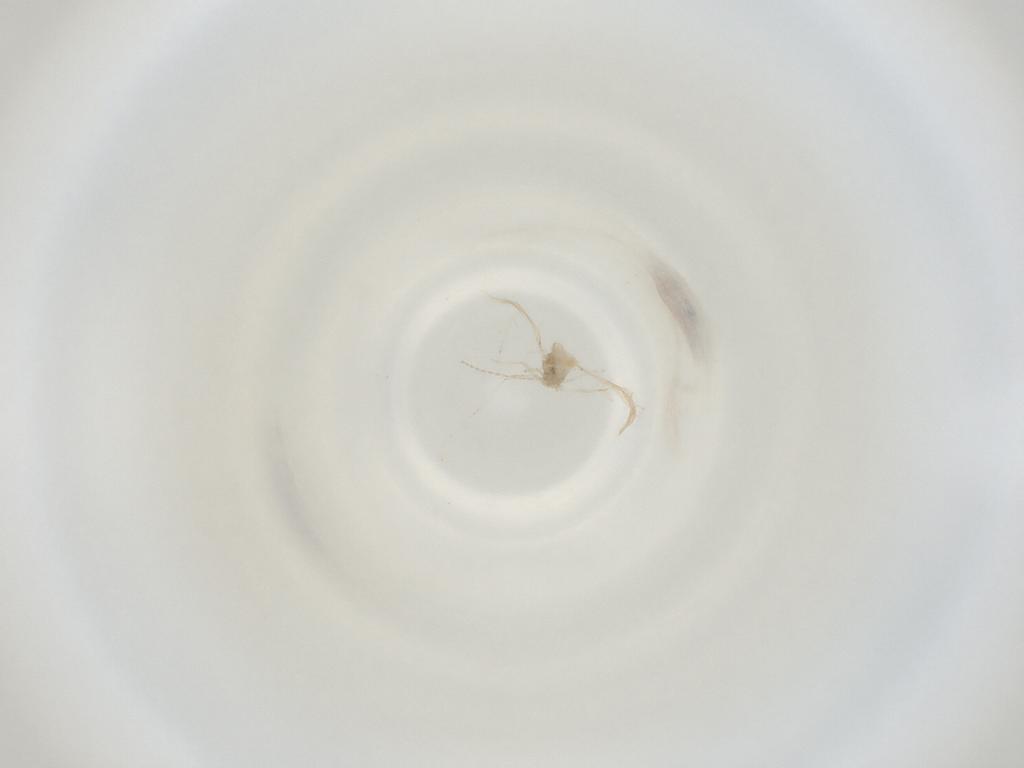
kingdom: Animalia
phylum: Arthropoda
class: Insecta
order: Diptera
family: Cecidomyiidae
